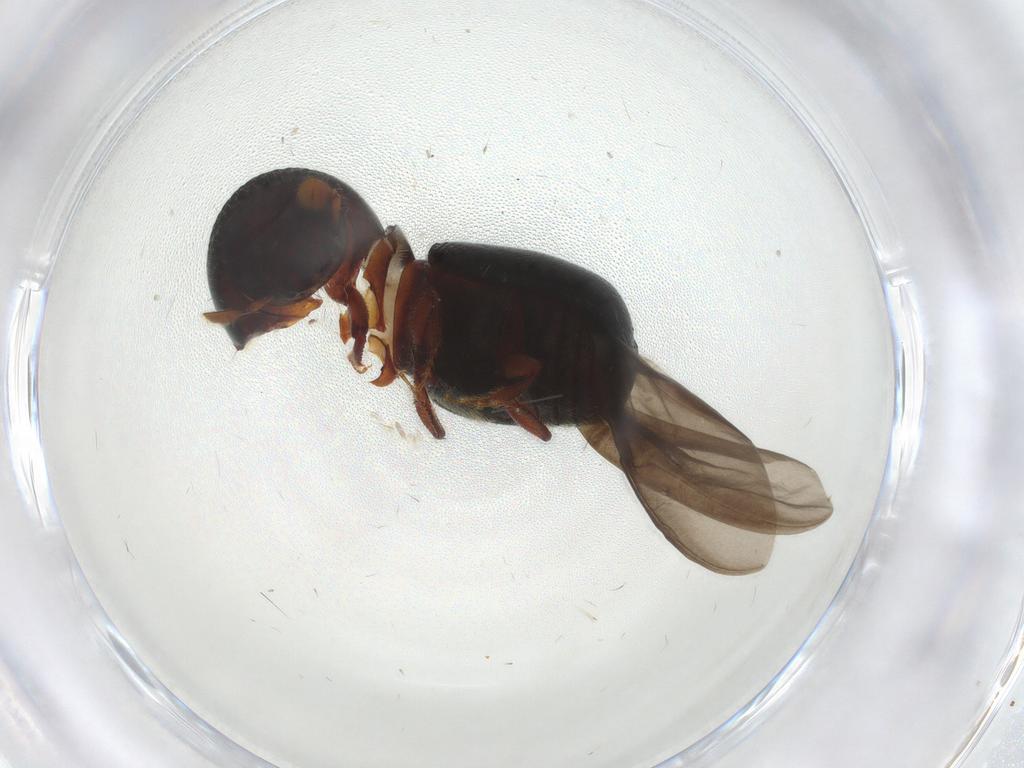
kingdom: Animalia
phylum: Arthropoda
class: Insecta
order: Coleoptera
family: Curculionidae
